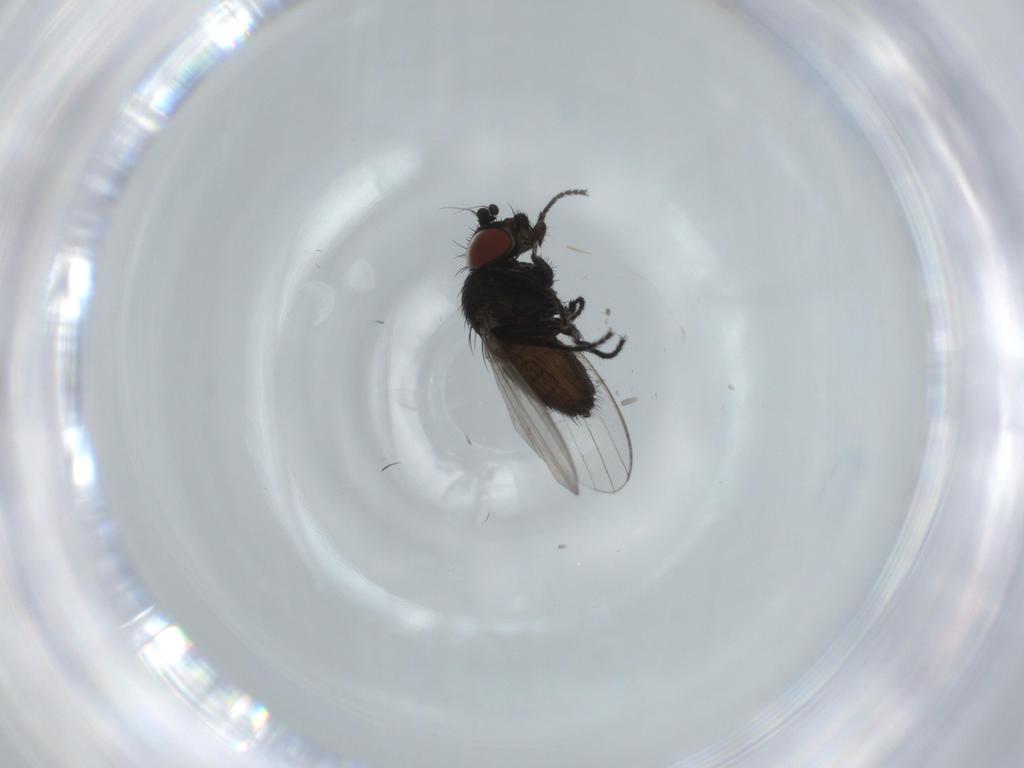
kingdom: Animalia
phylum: Arthropoda
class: Insecta
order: Diptera
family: Milichiidae
